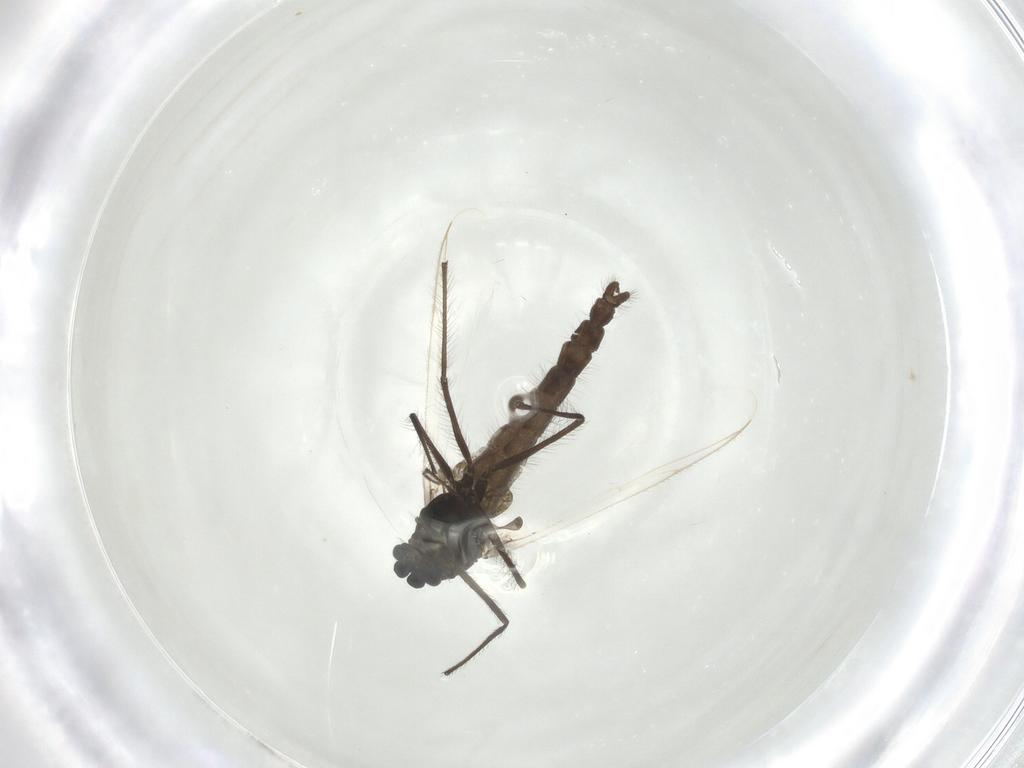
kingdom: Animalia
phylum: Arthropoda
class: Insecta
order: Diptera
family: Chironomidae
